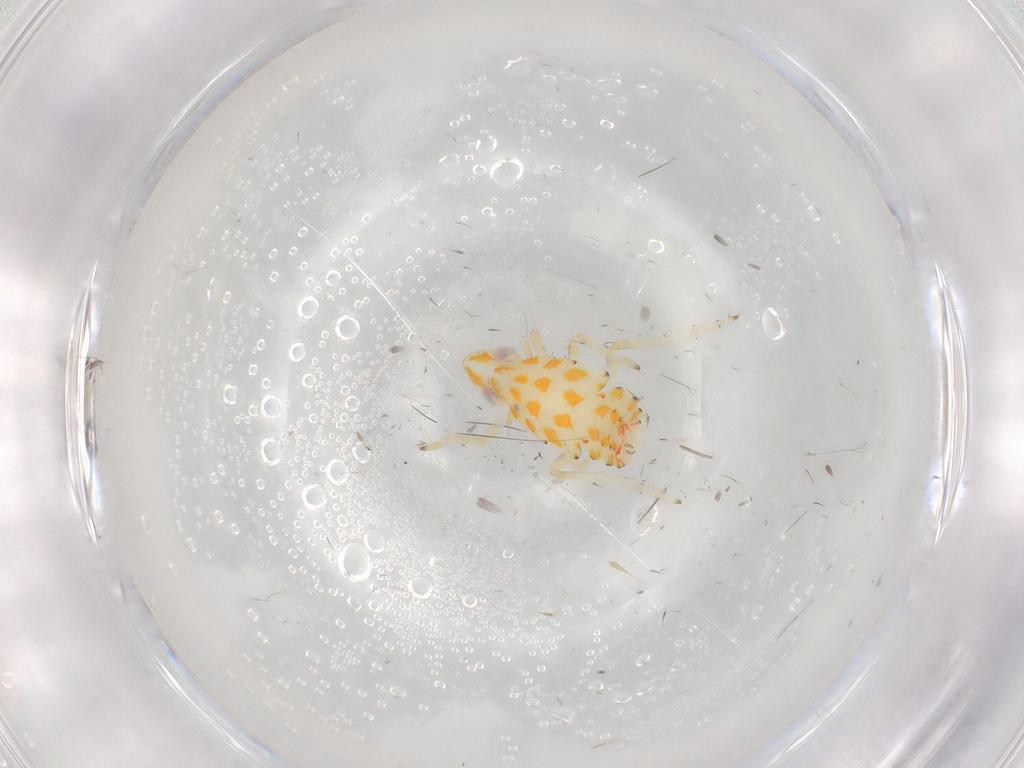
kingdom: Animalia
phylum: Arthropoda
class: Insecta
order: Hemiptera
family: Tropiduchidae
